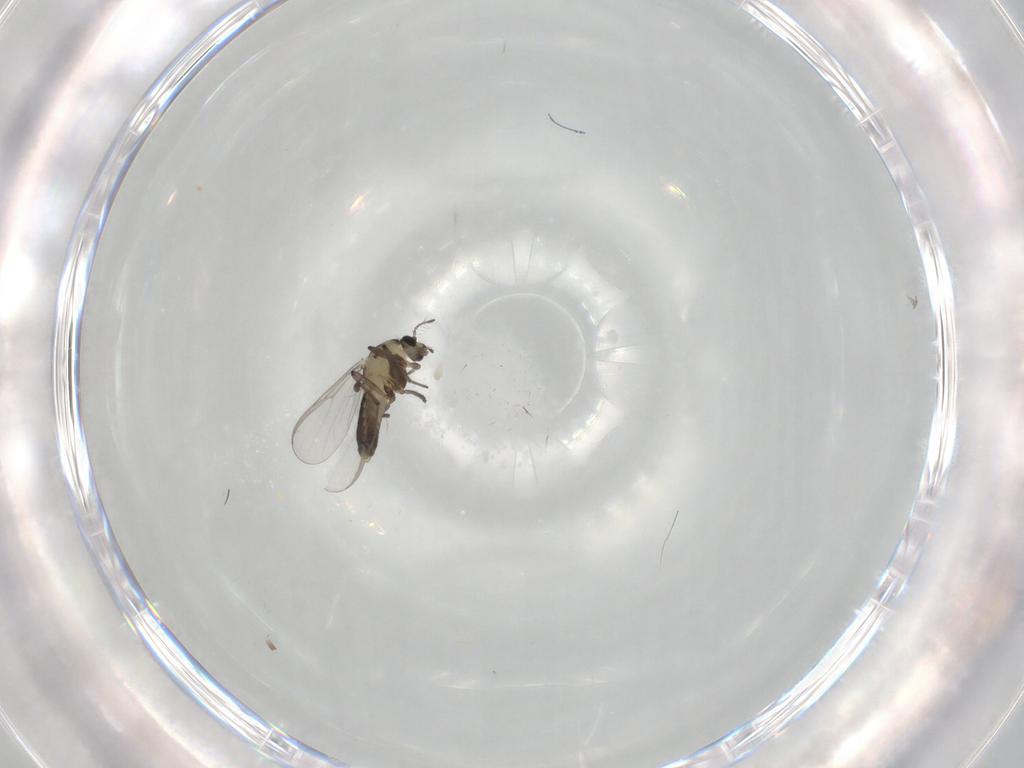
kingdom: Animalia
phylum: Arthropoda
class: Insecta
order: Diptera
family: Chironomidae
